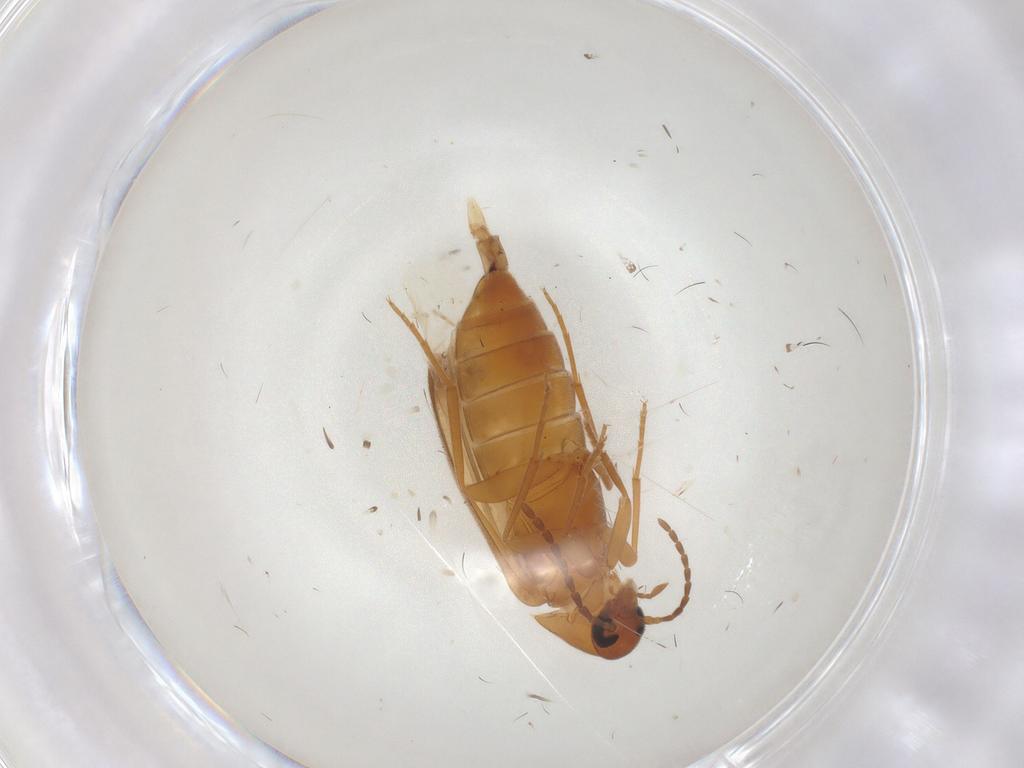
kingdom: Animalia
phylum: Arthropoda
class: Insecta
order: Coleoptera
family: Scraptiidae
